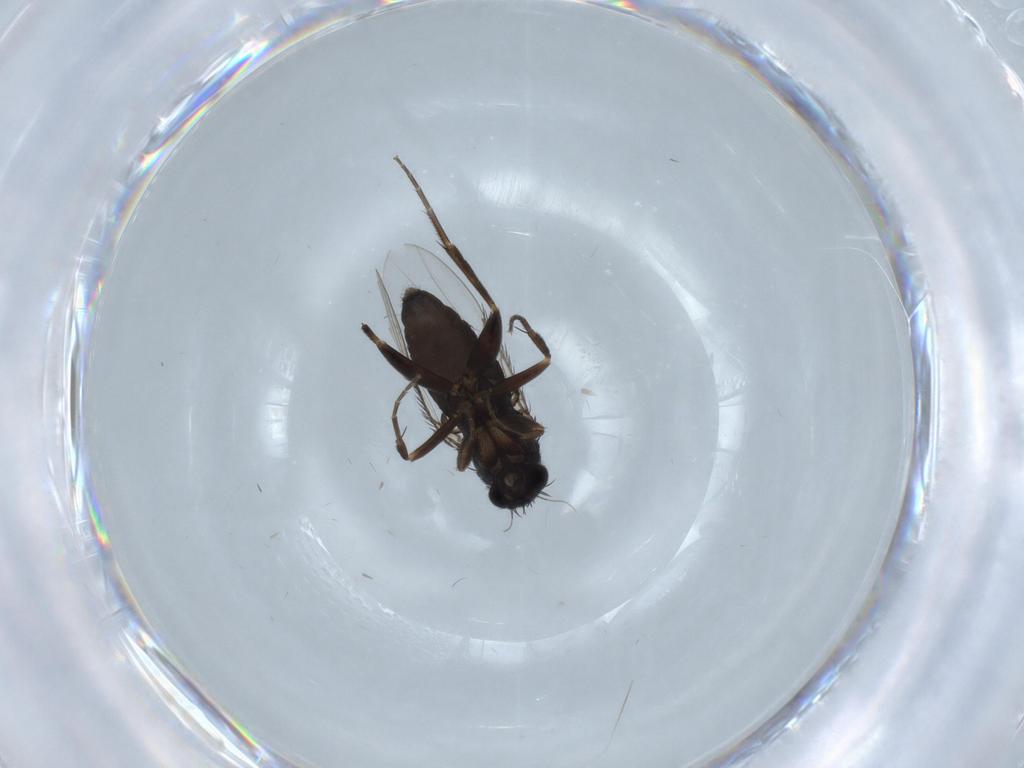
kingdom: Animalia
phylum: Arthropoda
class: Insecta
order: Diptera
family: Phoridae
